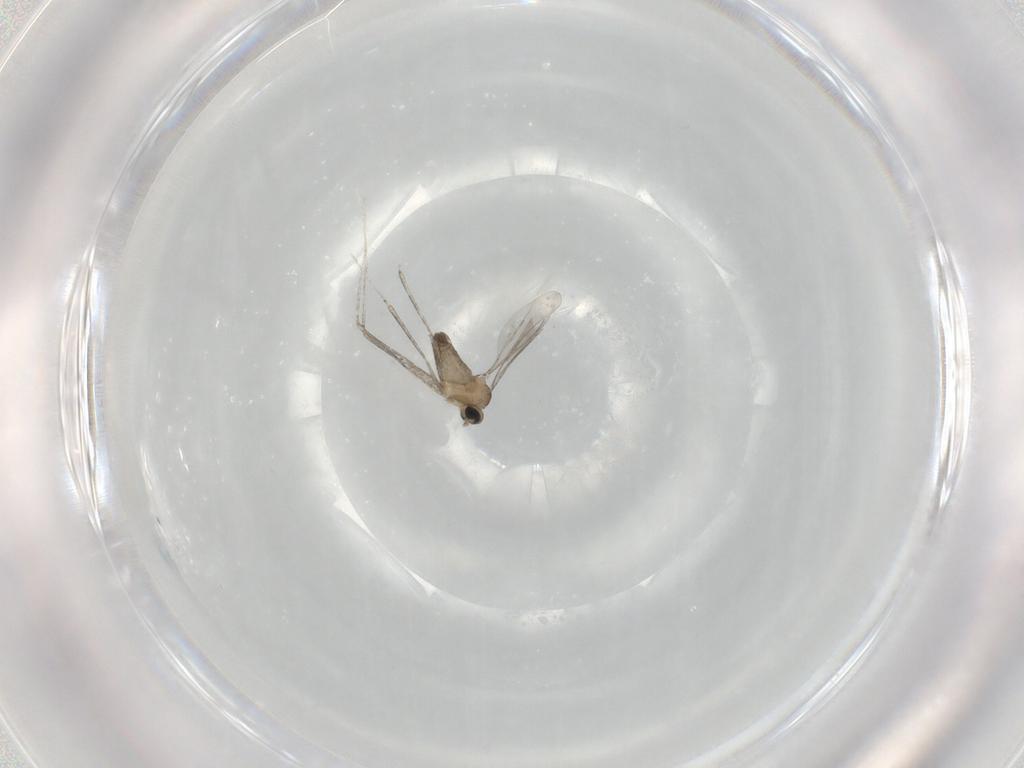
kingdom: Animalia
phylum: Arthropoda
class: Insecta
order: Diptera
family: Cecidomyiidae
